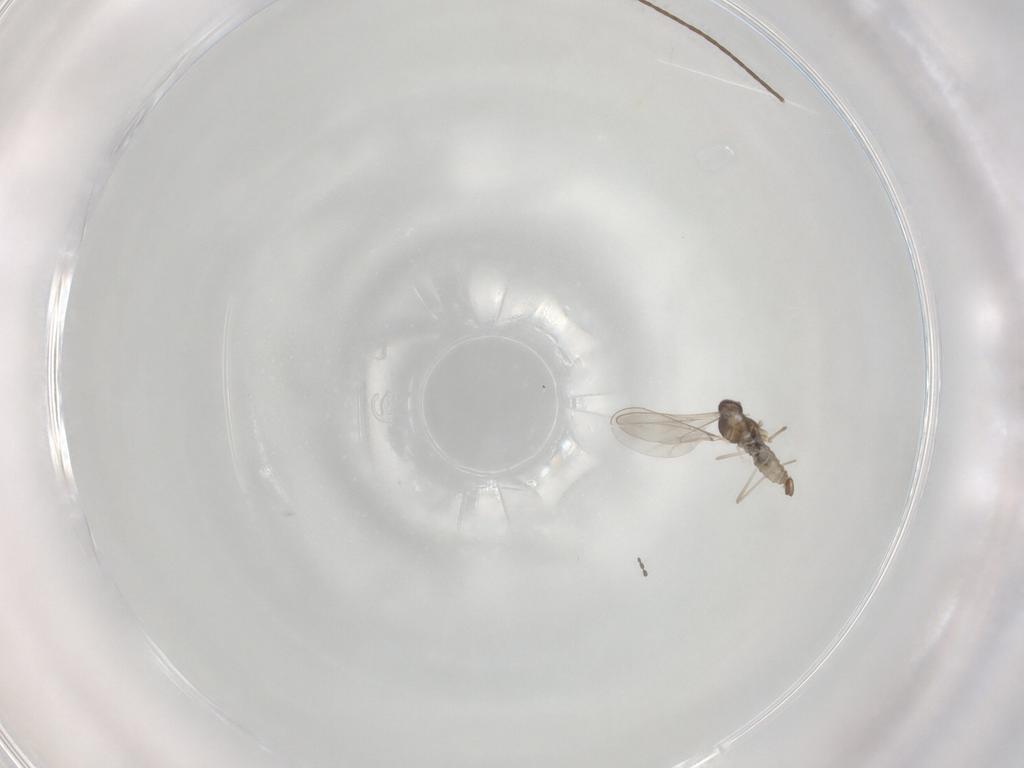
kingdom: Animalia
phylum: Arthropoda
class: Insecta
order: Diptera
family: Cecidomyiidae
